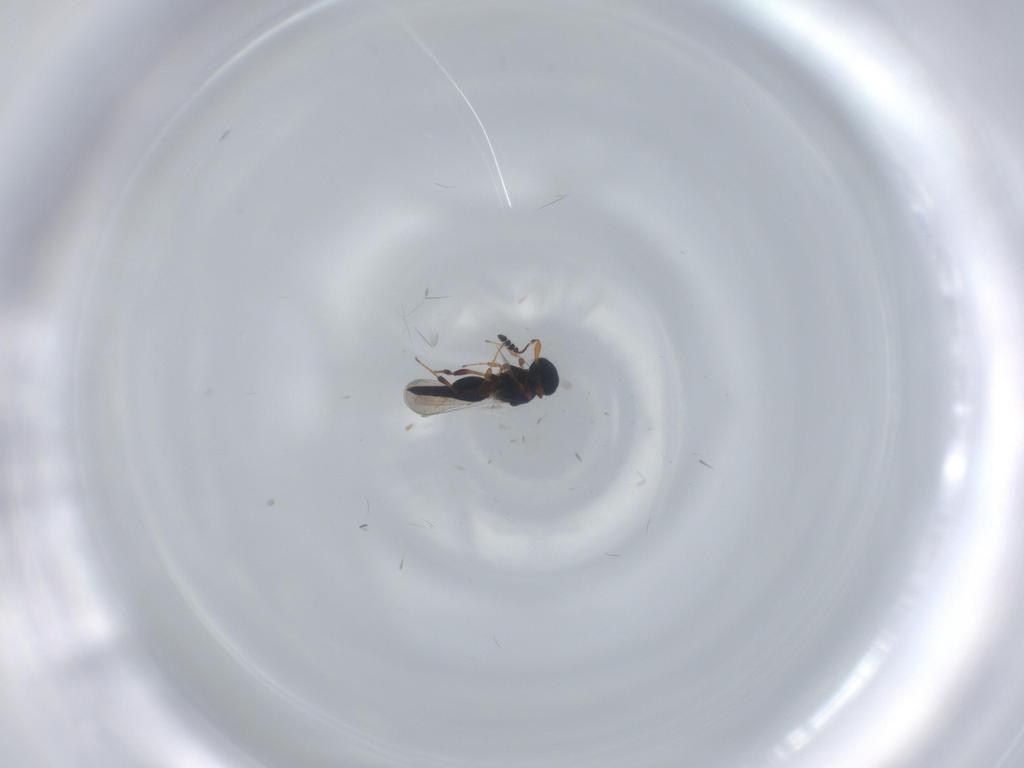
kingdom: Animalia
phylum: Arthropoda
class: Insecta
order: Hymenoptera
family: Platygastridae
